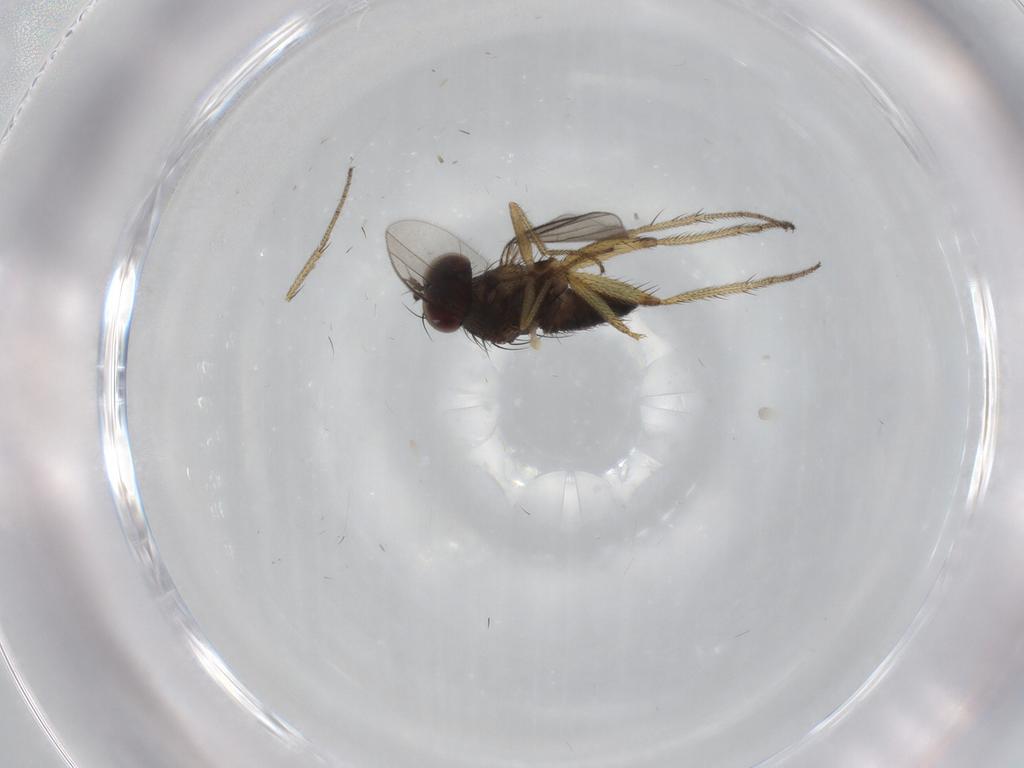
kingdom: Animalia
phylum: Arthropoda
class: Insecta
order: Diptera
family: Dolichopodidae
